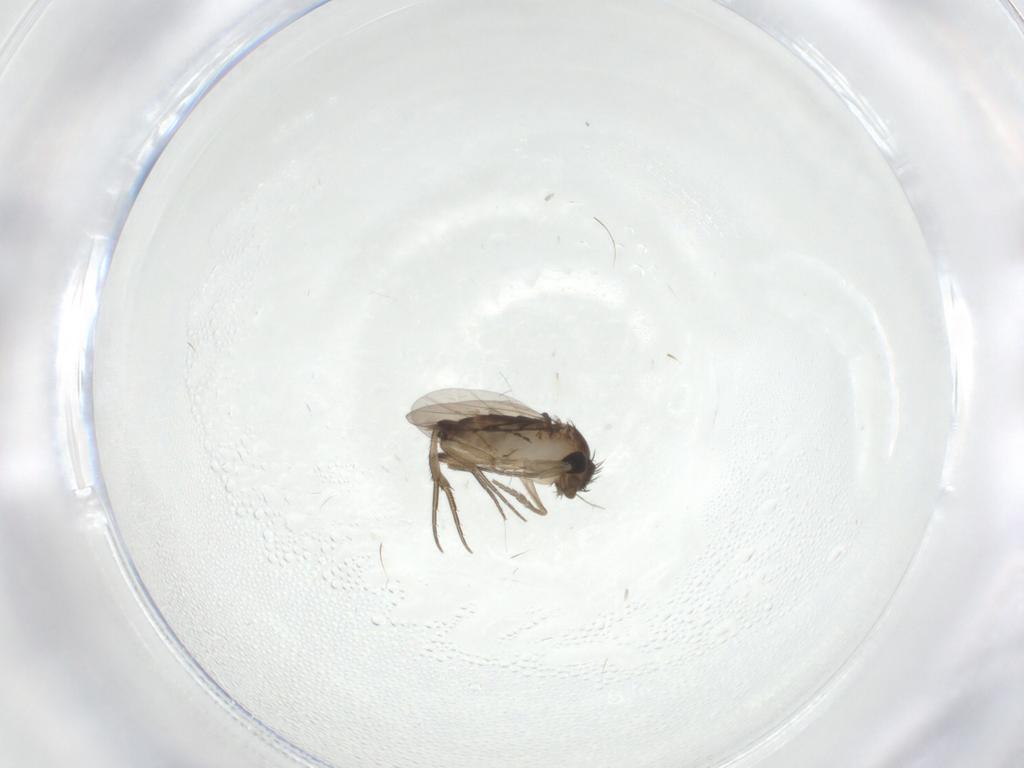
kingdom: Animalia
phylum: Arthropoda
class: Insecta
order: Diptera
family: Phoridae
